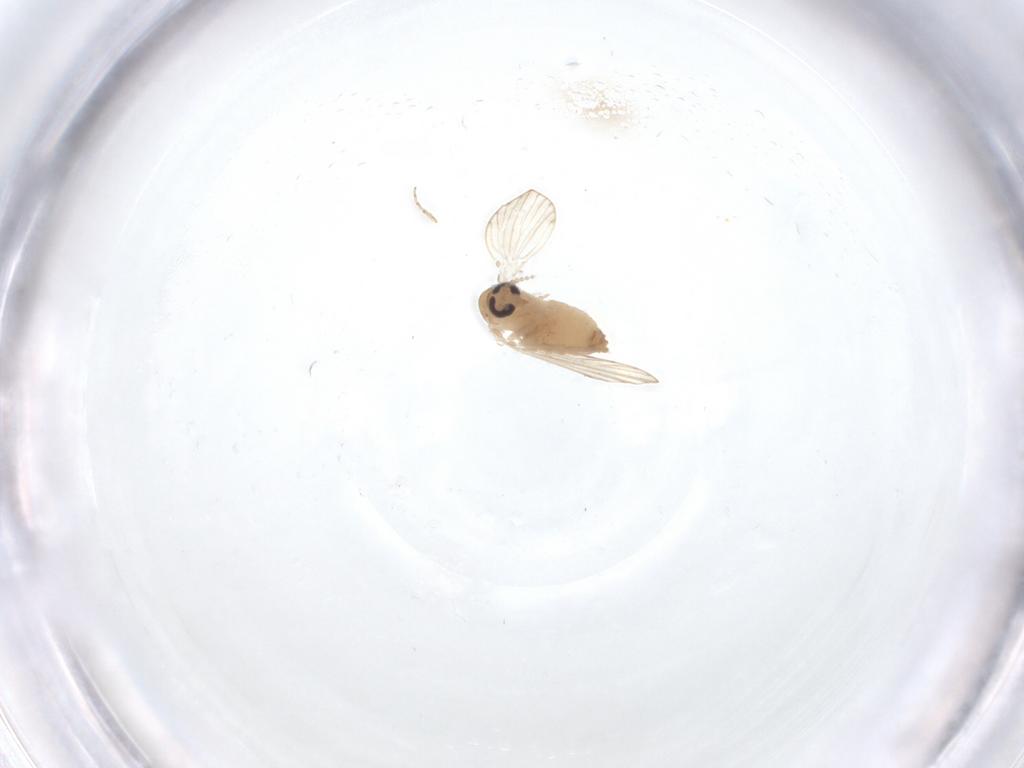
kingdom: Animalia
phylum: Arthropoda
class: Insecta
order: Diptera
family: Psychodidae
